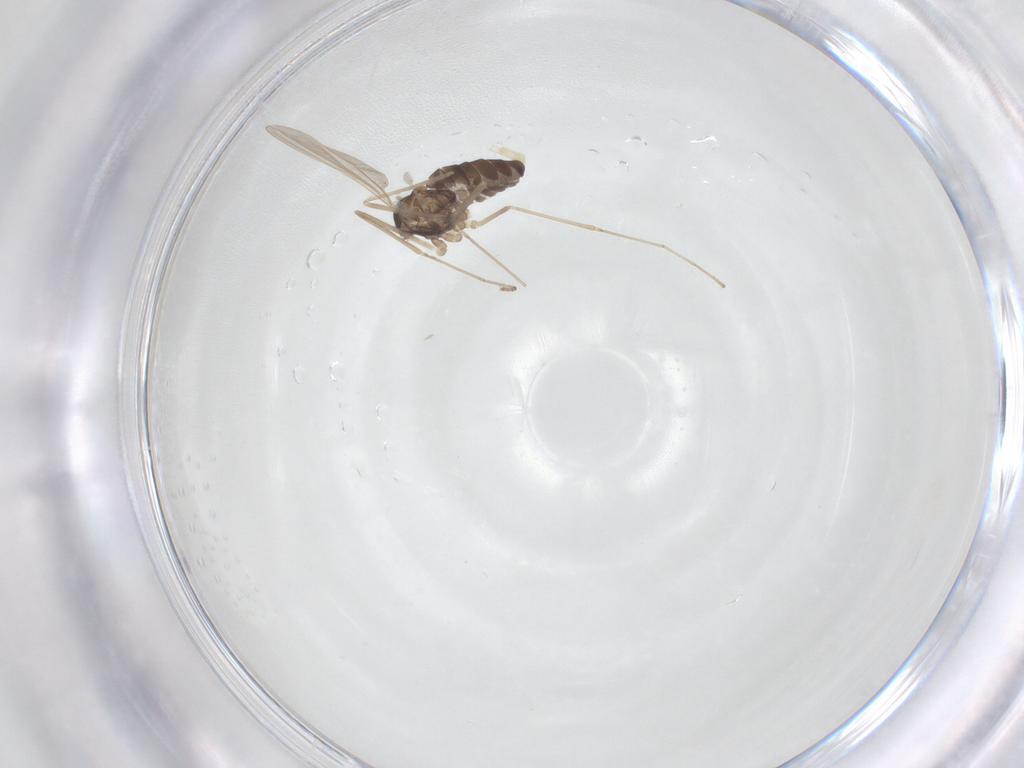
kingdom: Animalia
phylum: Arthropoda
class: Insecta
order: Diptera
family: Cecidomyiidae
